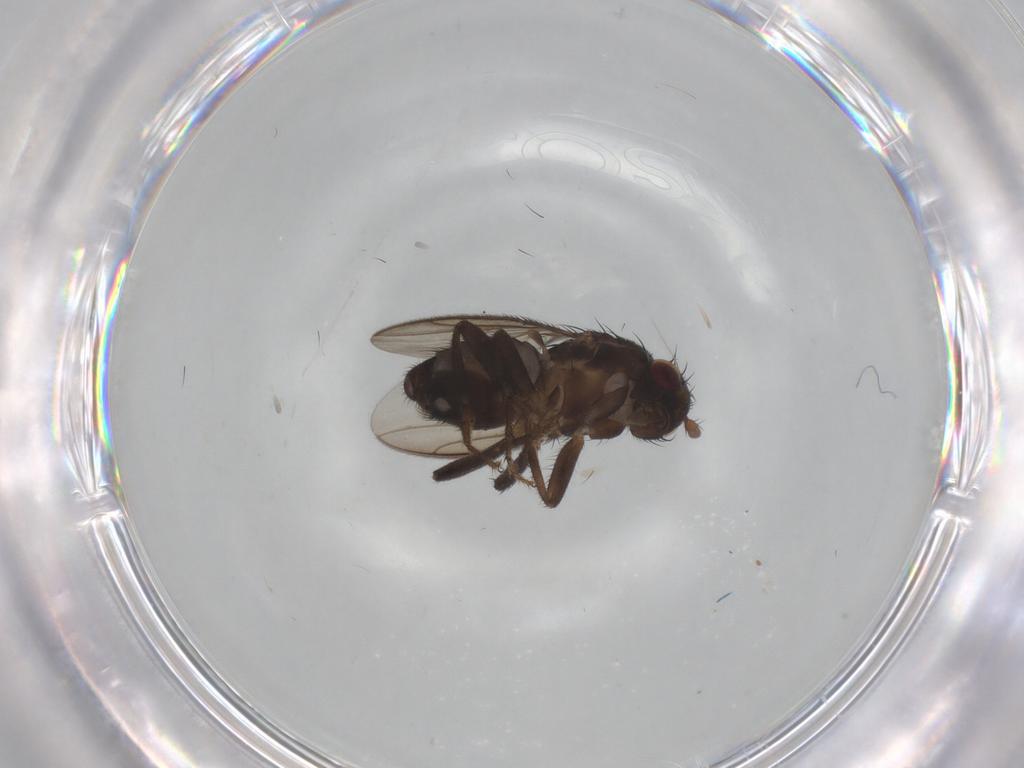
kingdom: Animalia
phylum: Arthropoda
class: Insecta
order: Diptera
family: Sphaeroceridae
